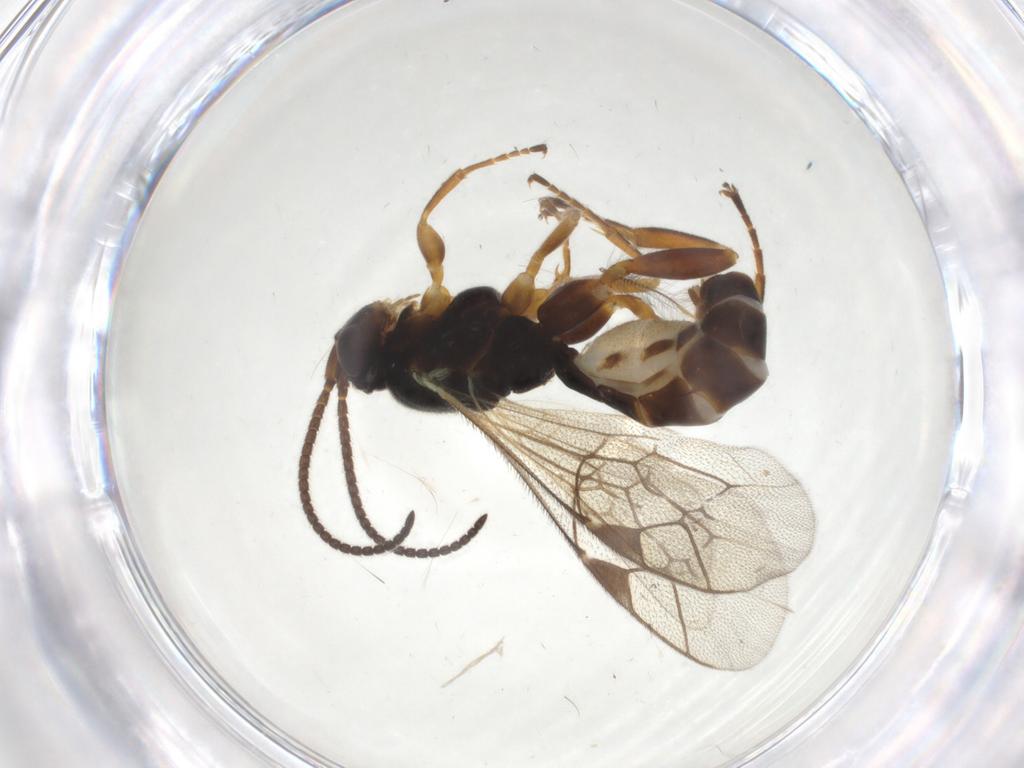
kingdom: Animalia
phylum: Arthropoda
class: Insecta
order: Hymenoptera
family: Ichneumonidae
